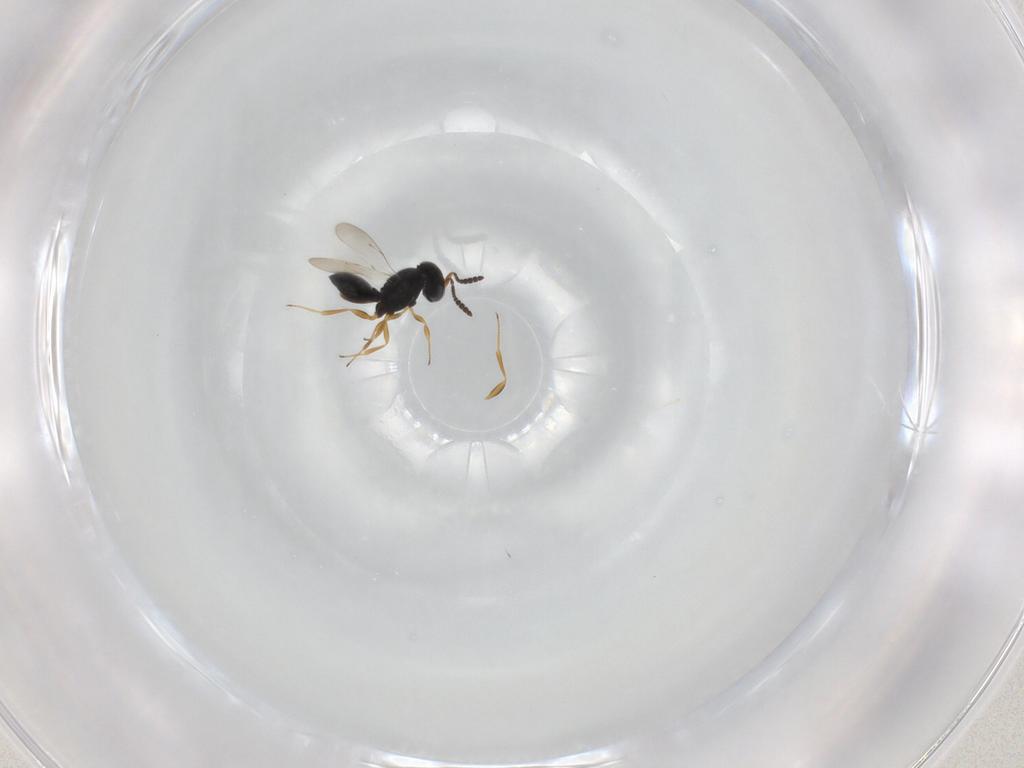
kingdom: Animalia
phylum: Arthropoda
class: Insecta
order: Hymenoptera
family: Scelionidae
